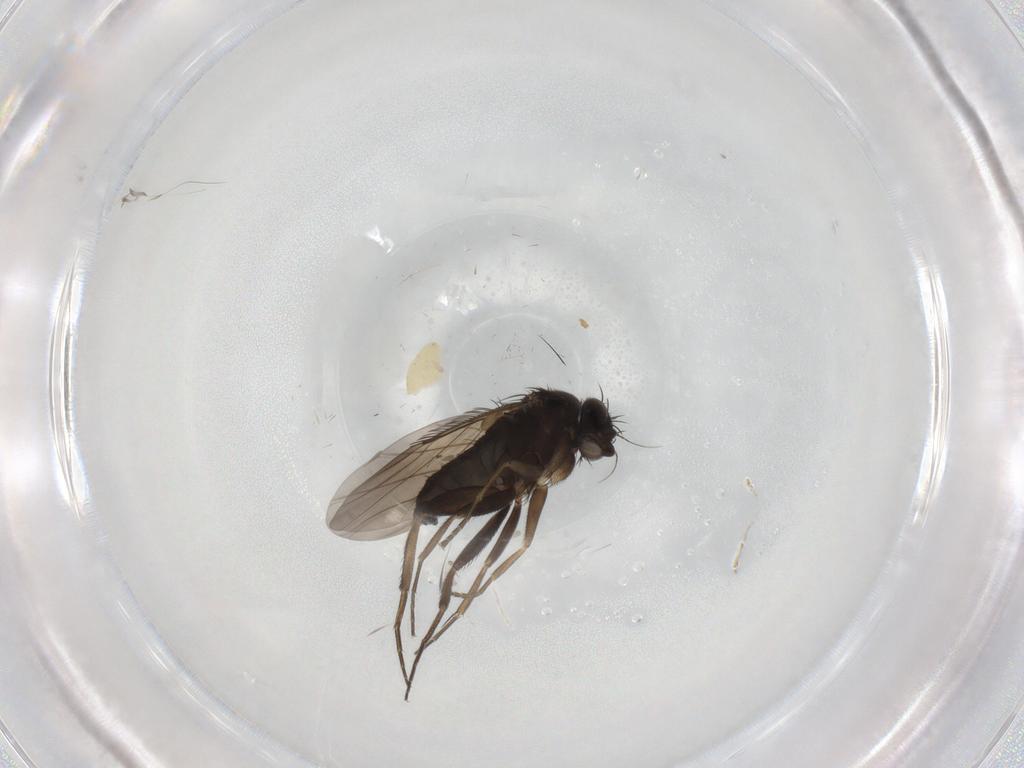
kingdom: Animalia
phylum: Arthropoda
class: Insecta
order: Diptera
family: Phoridae
